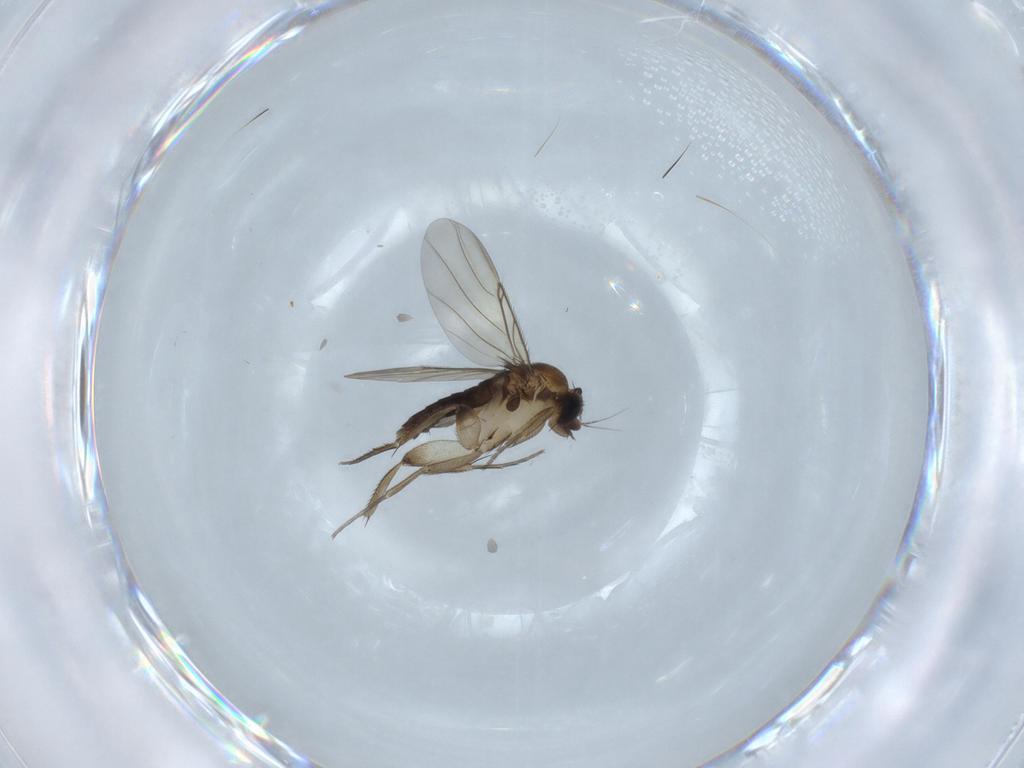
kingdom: Animalia
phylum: Arthropoda
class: Insecta
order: Diptera
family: Phoridae
